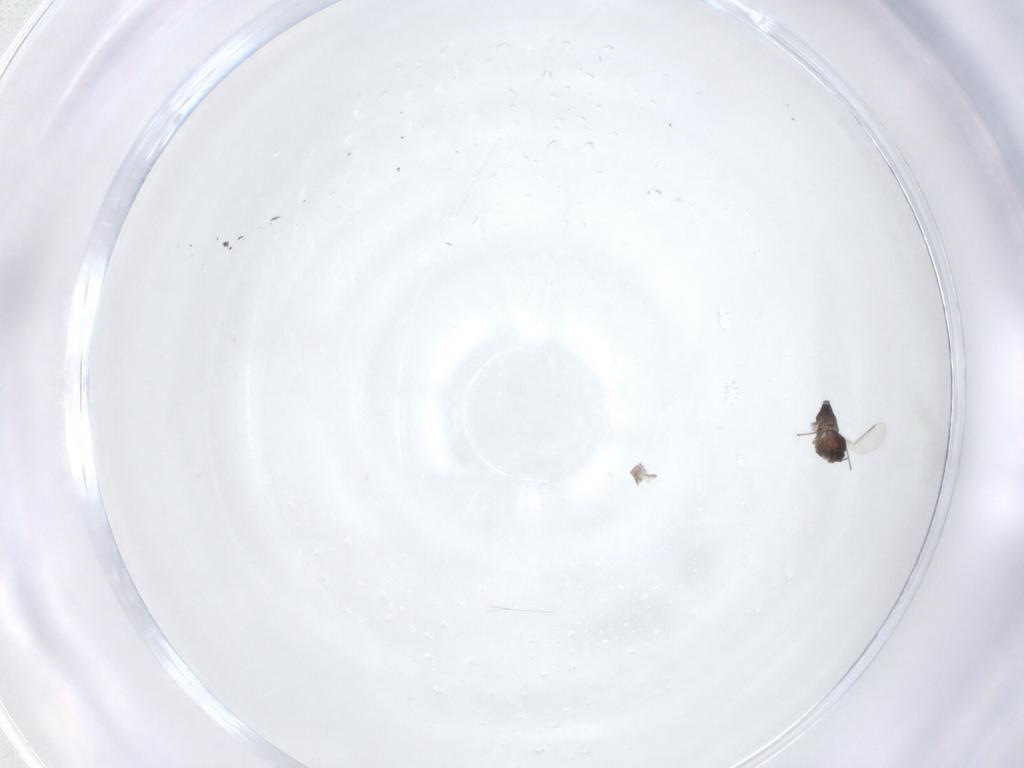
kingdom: Animalia
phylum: Arthropoda
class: Insecta
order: Diptera
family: Chironomidae
